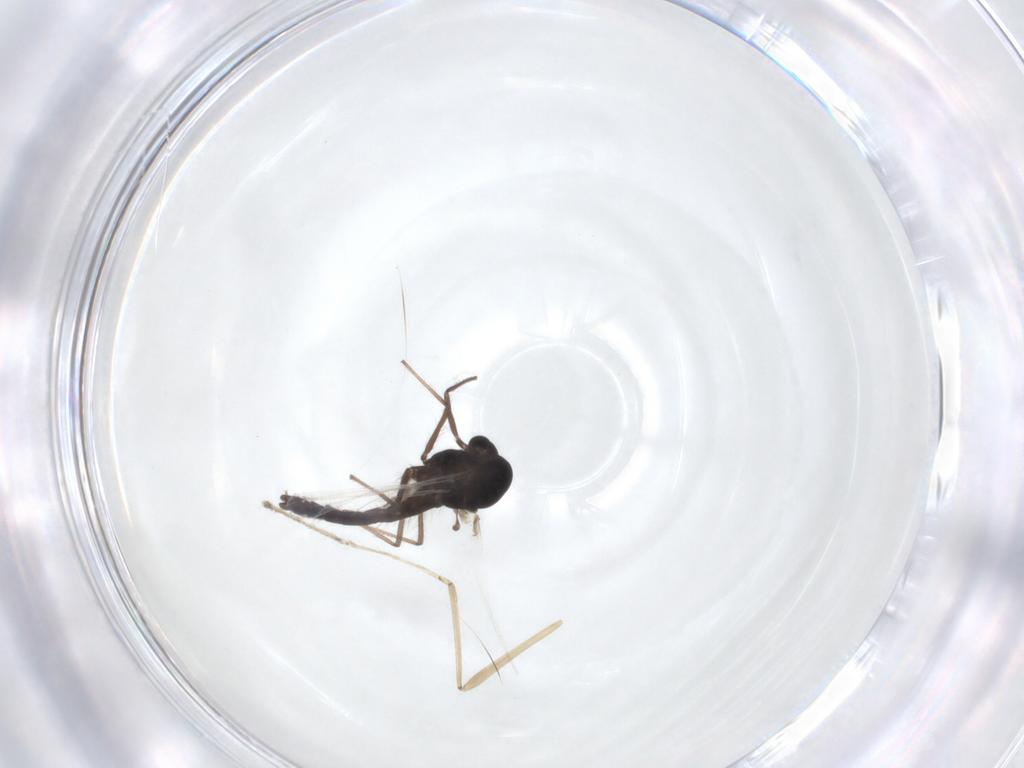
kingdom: Animalia
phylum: Arthropoda
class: Insecta
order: Diptera
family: Chironomidae
